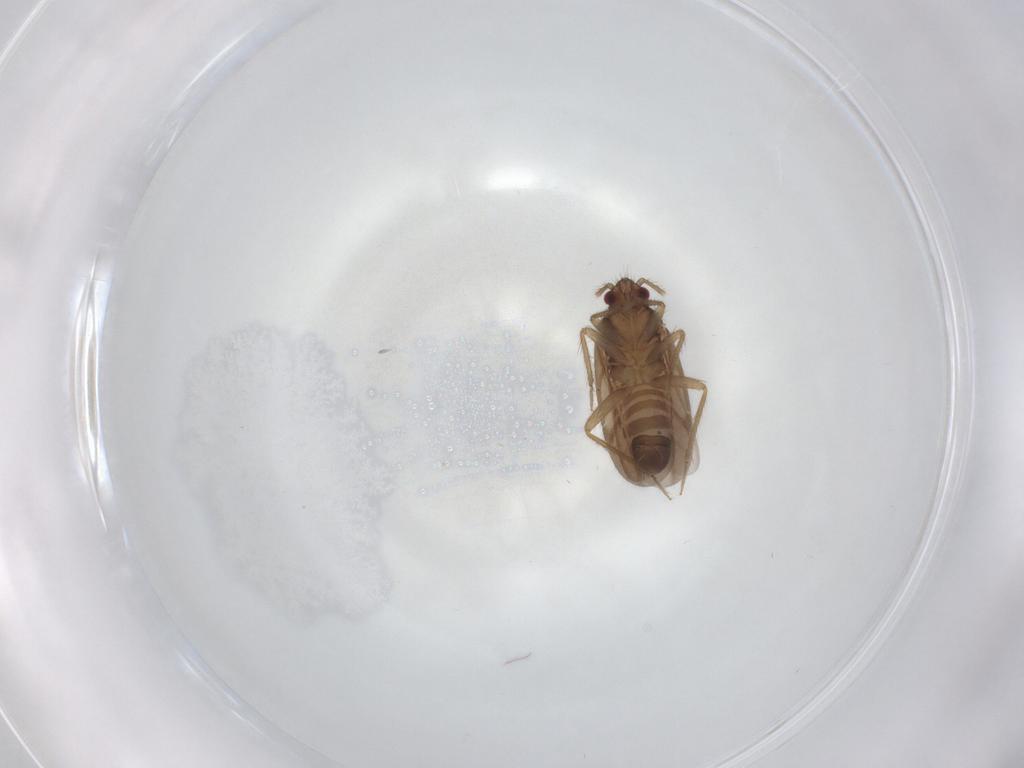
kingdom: Animalia
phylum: Arthropoda
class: Insecta
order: Hemiptera
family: Ceratocombidae
